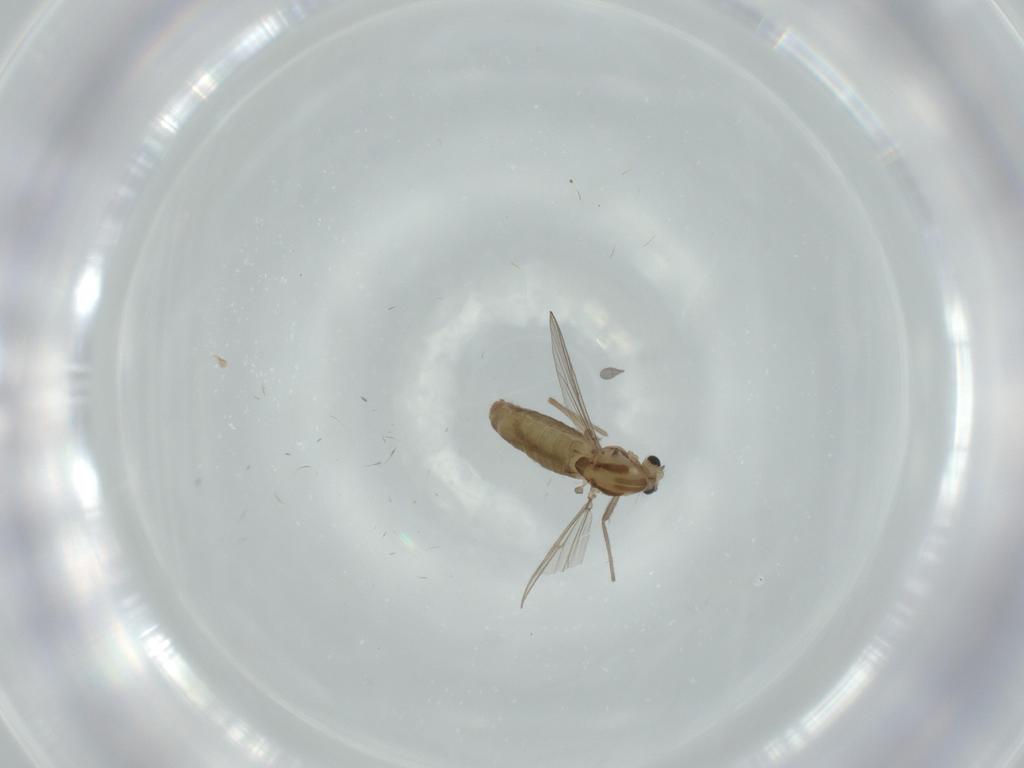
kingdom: Animalia
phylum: Arthropoda
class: Insecta
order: Diptera
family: Chironomidae
